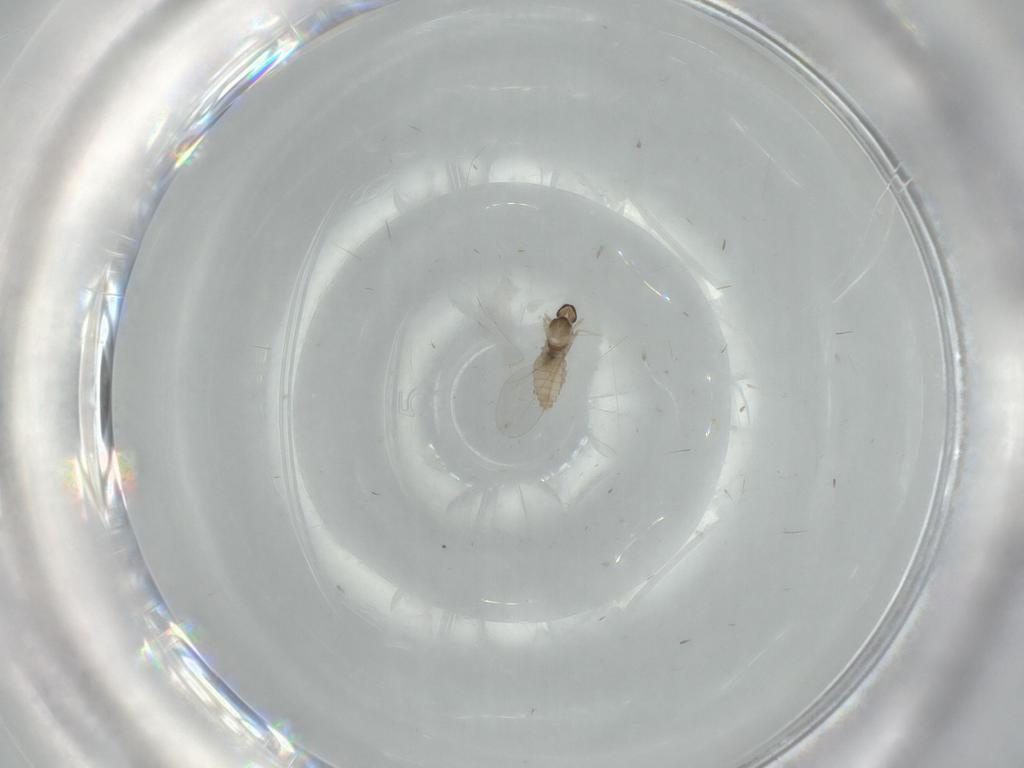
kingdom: Animalia
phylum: Arthropoda
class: Insecta
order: Diptera
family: Cecidomyiidae
